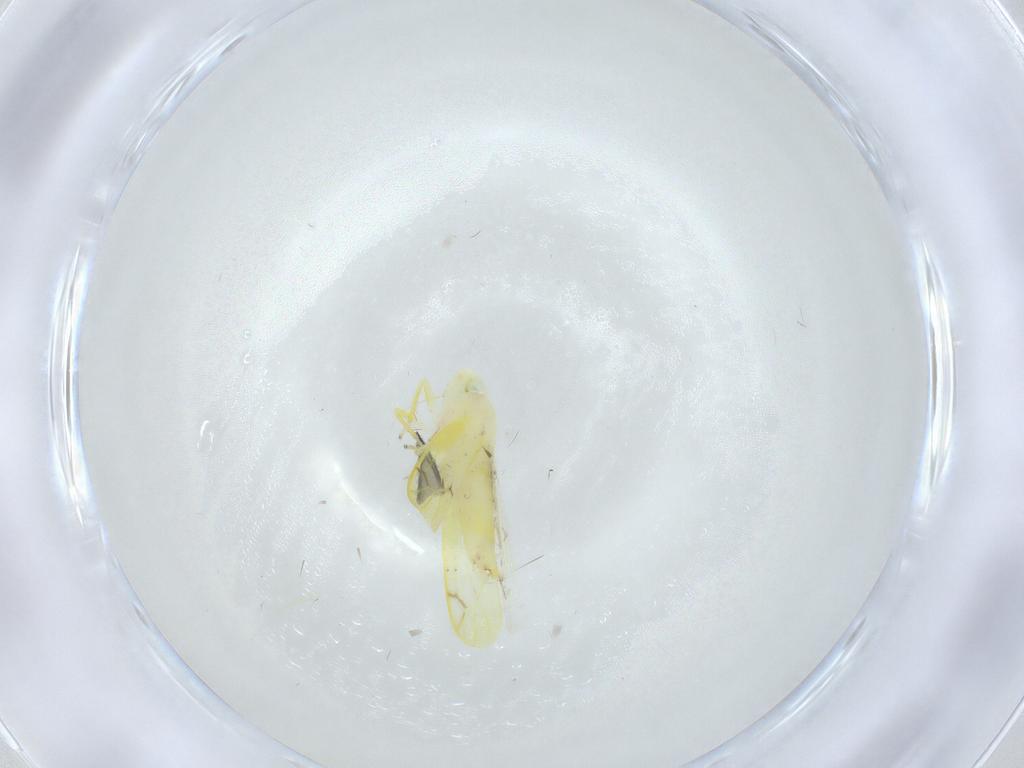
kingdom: Animalia
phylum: Arthropoda
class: Insecta
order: Hemiptera
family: Cicadellidae
